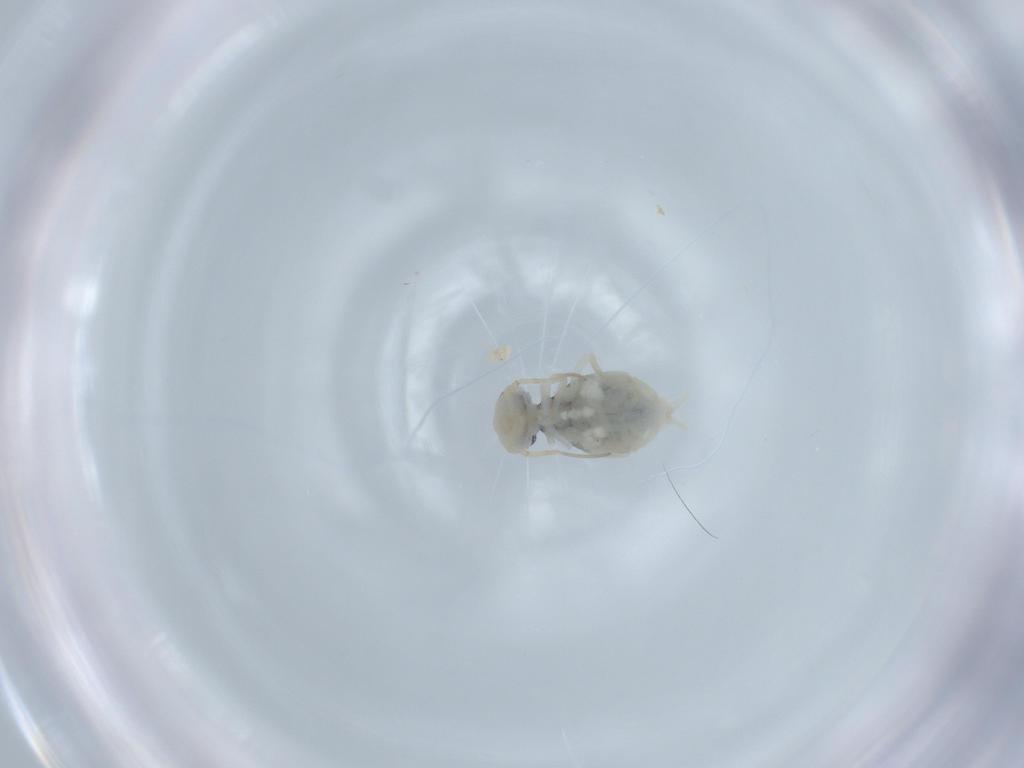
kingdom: Animalia
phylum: Arthropoda
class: Collembola
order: Symphypleona
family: Bourletiellidae
